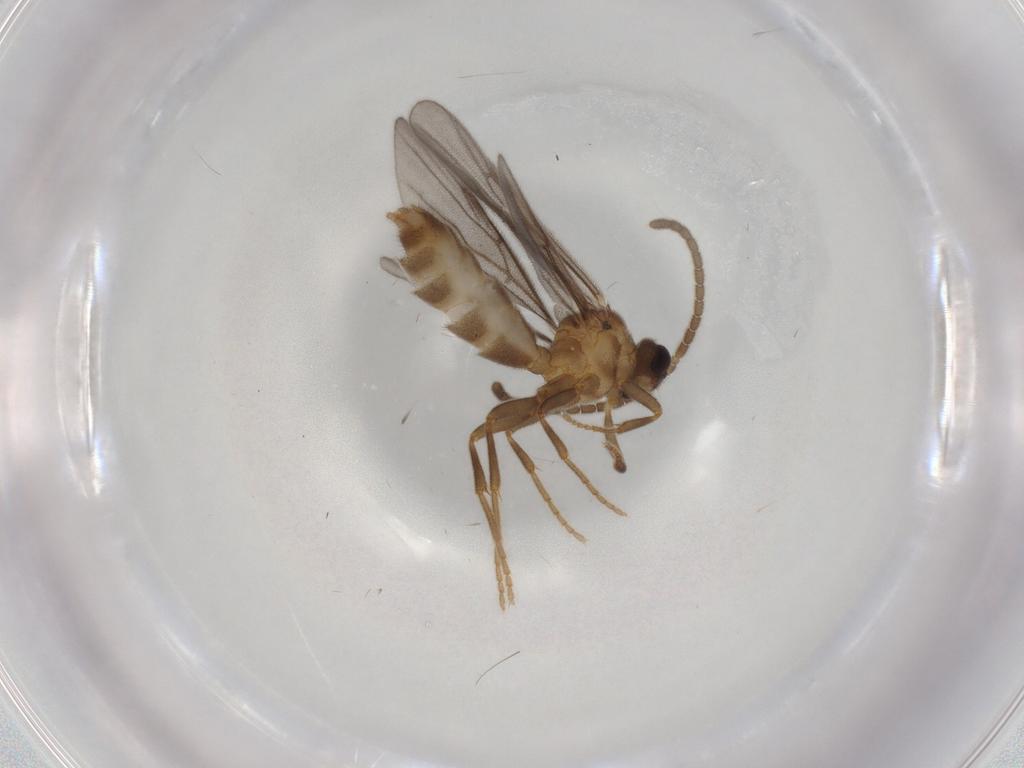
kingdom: Animalia
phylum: Arthropoda
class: Insecta
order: Hymenoptera
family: Formicidae
